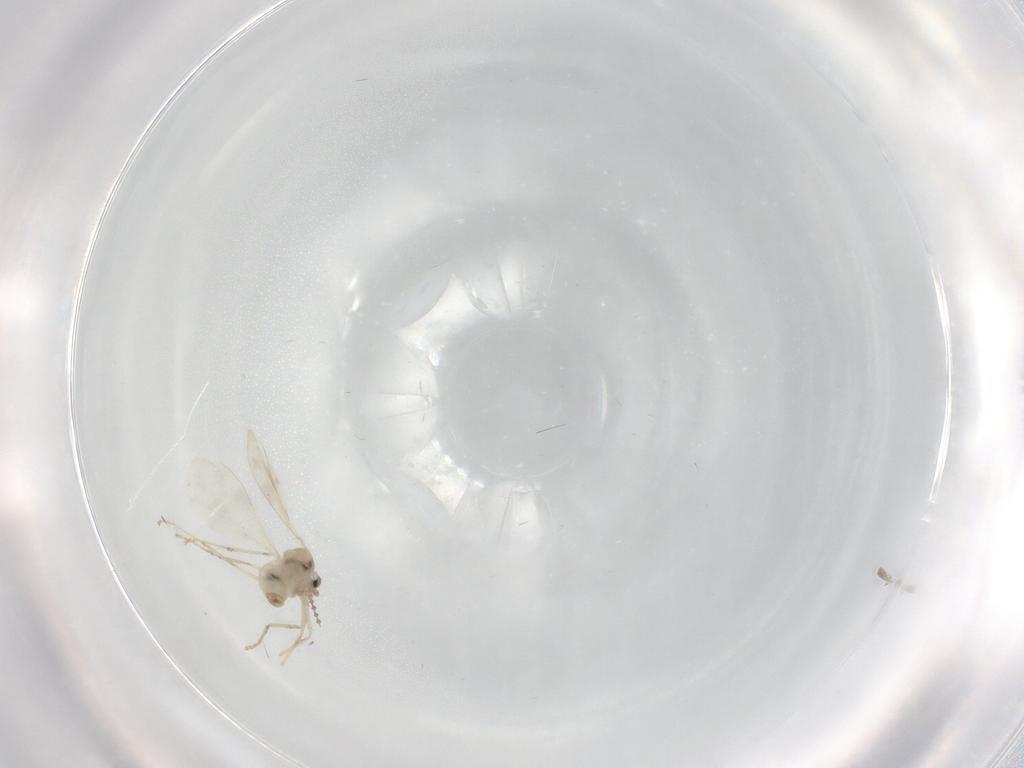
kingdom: Animalia
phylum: Arthropoda
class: Insecta
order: Diptera
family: Cecidomyiidae
